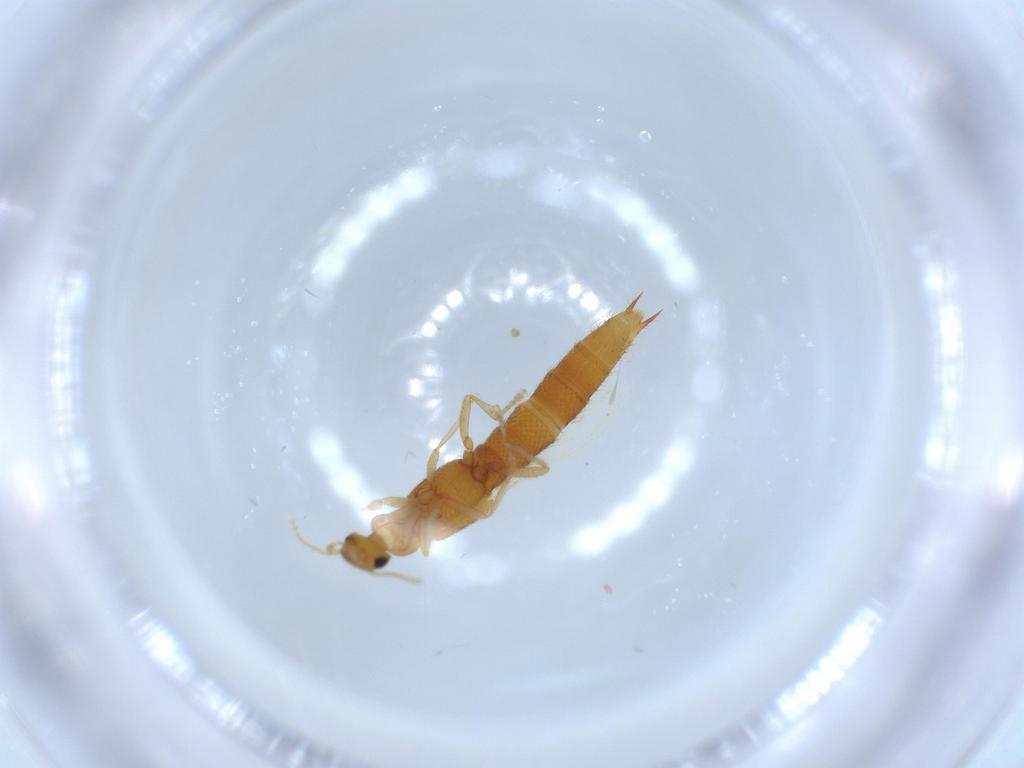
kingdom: Animalia
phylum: Arthropoda
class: Insecta
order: Coleoptera
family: Staphylinidae
